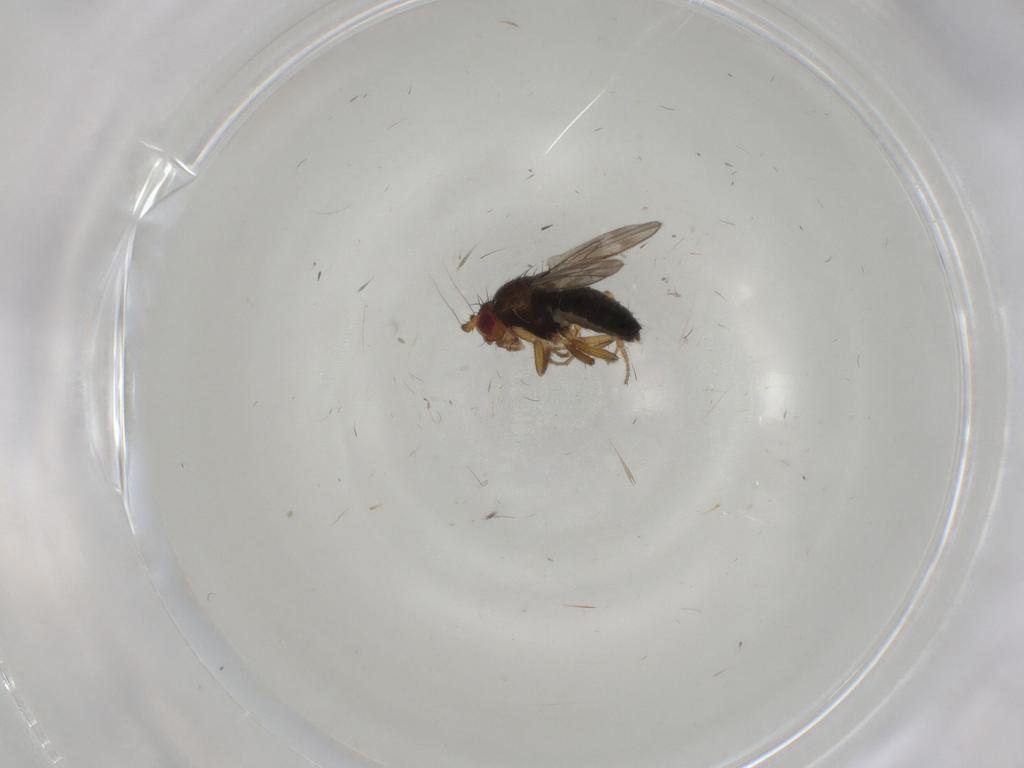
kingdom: Animalia
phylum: Arthropoda
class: Insecta
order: Diptera
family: Sphaeroceridae
